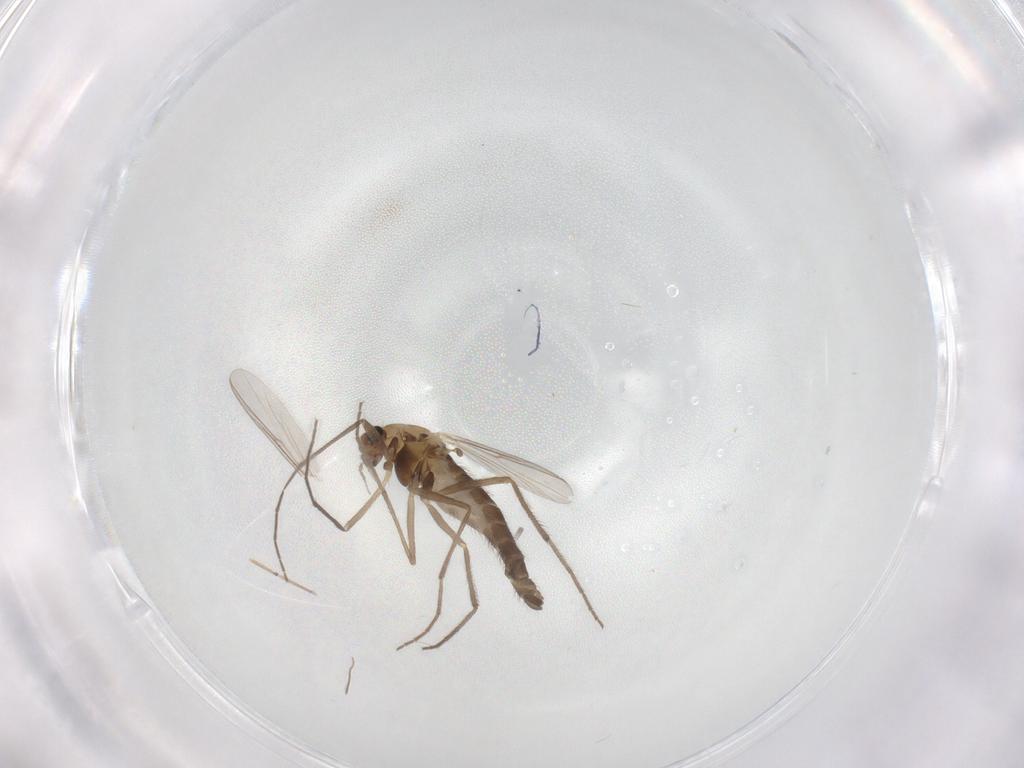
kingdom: Animalia
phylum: Arthropoda
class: Insecta
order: Diptera
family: Chironomidae
